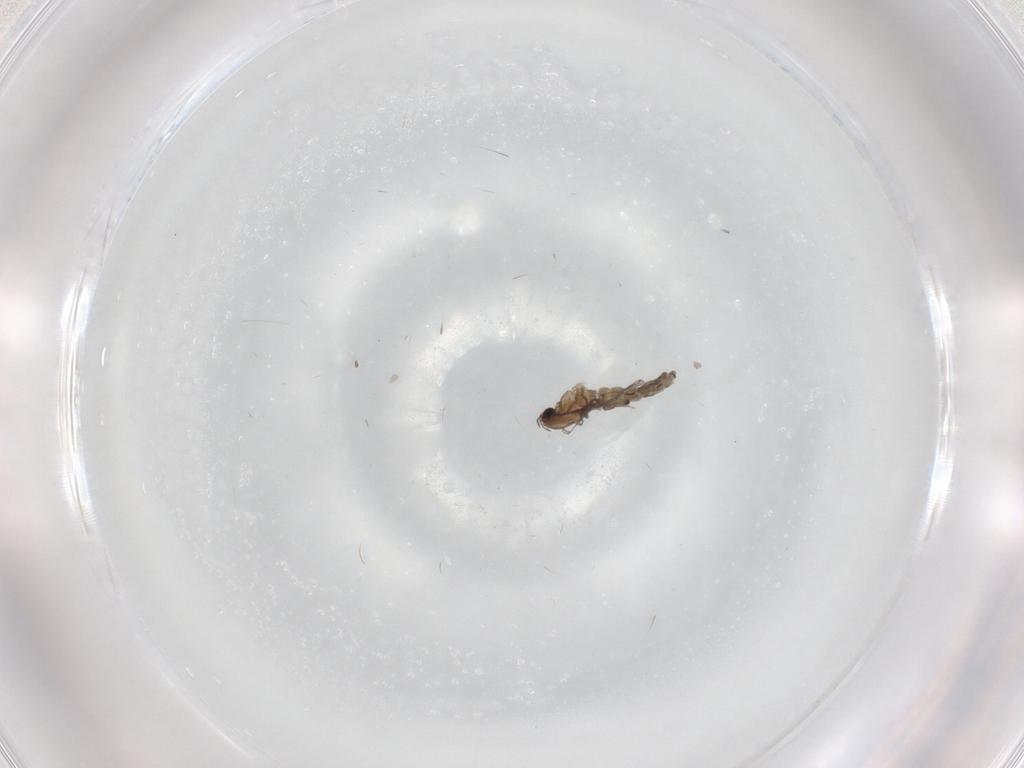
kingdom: Animalia
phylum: Arthropoda
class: Insecta
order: Diptera
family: Chironomidae
